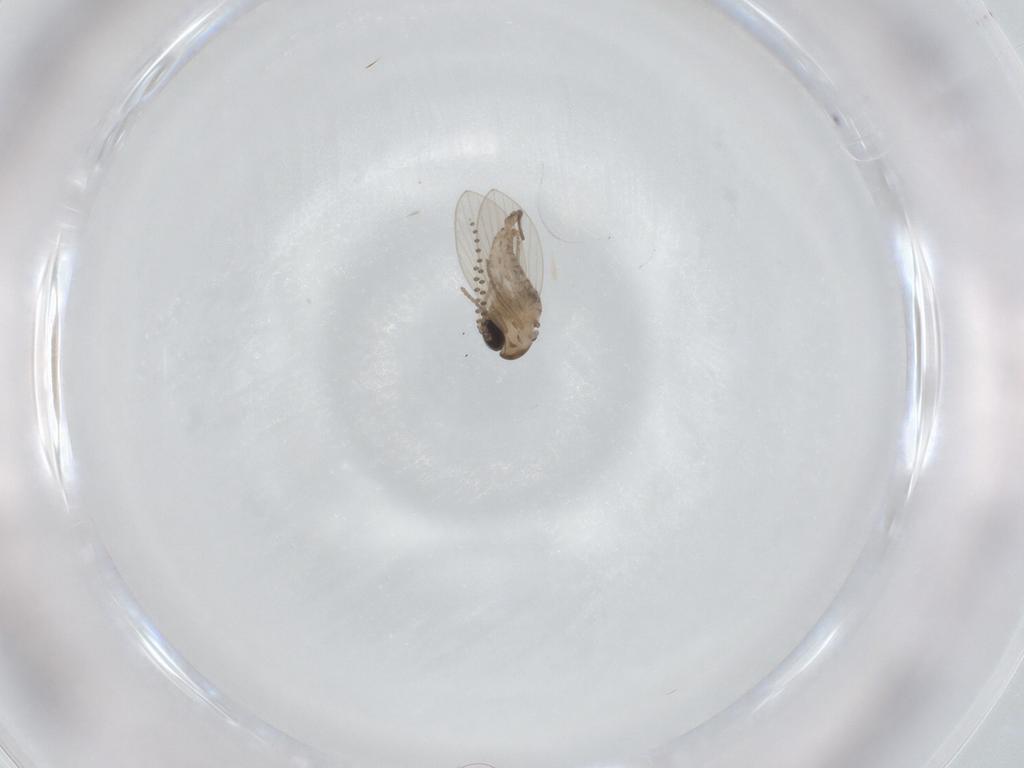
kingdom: Animalia
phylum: Arthropoda
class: Insecta
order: Diptera
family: Psychodidae
